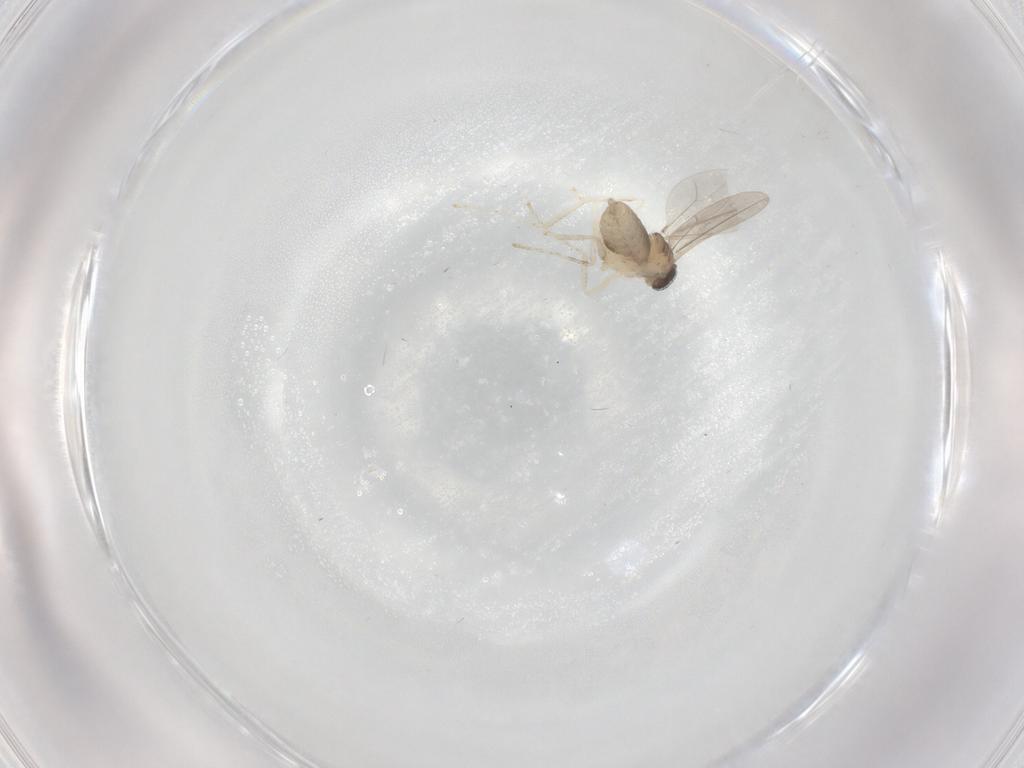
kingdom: Animalia
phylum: Arthropoda
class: Insecta
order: Diptera
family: Cecidomyiidae
